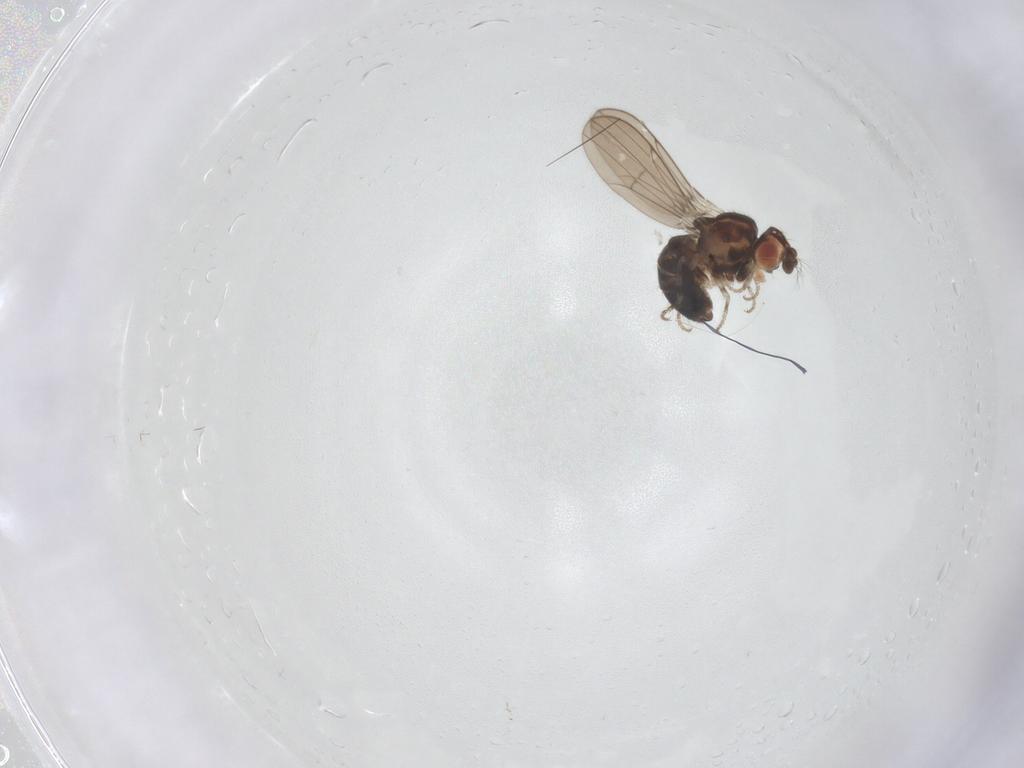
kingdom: Animalia
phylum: Arthropoda
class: Insecta
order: Diptera
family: Drosophilidae
